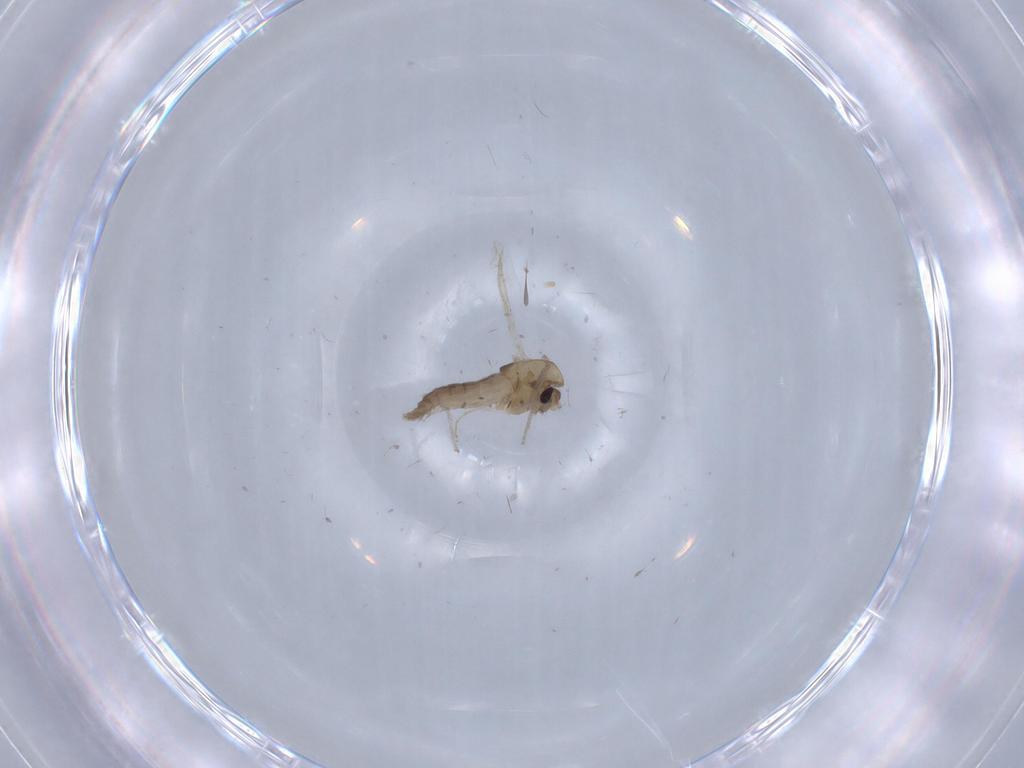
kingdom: Animalia
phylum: Arthropoda
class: Insecta
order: Diptera
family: Chironomidae
